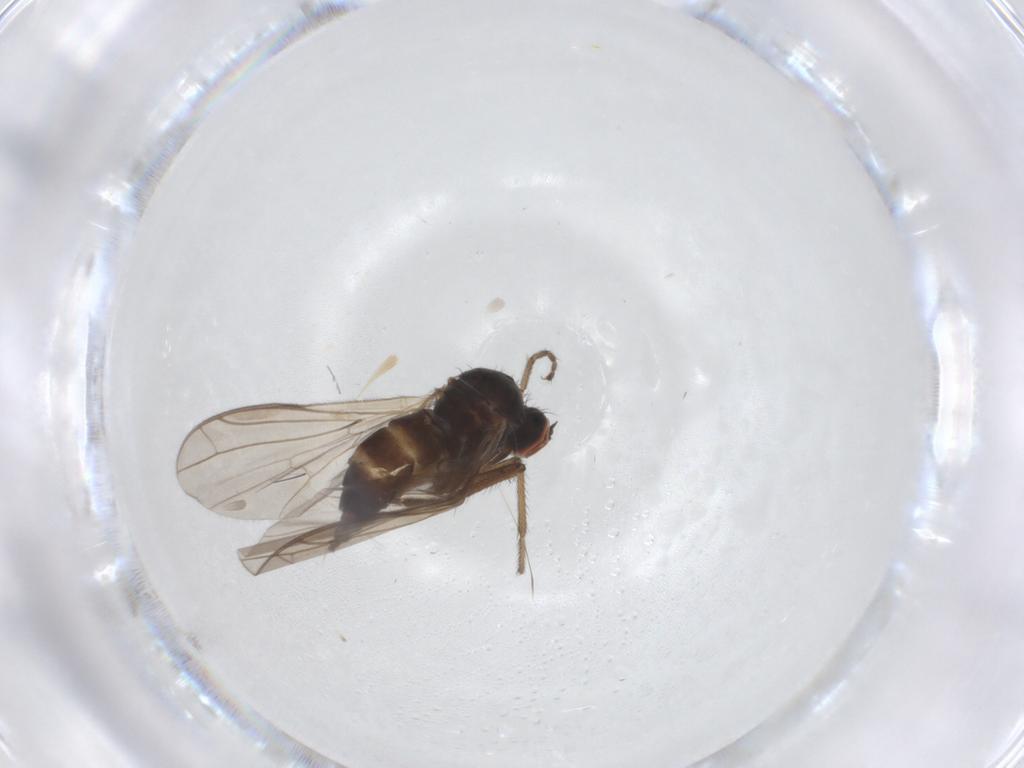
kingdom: Animalia
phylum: Arthropoda
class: Insecta
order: Diptera
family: Empididae
